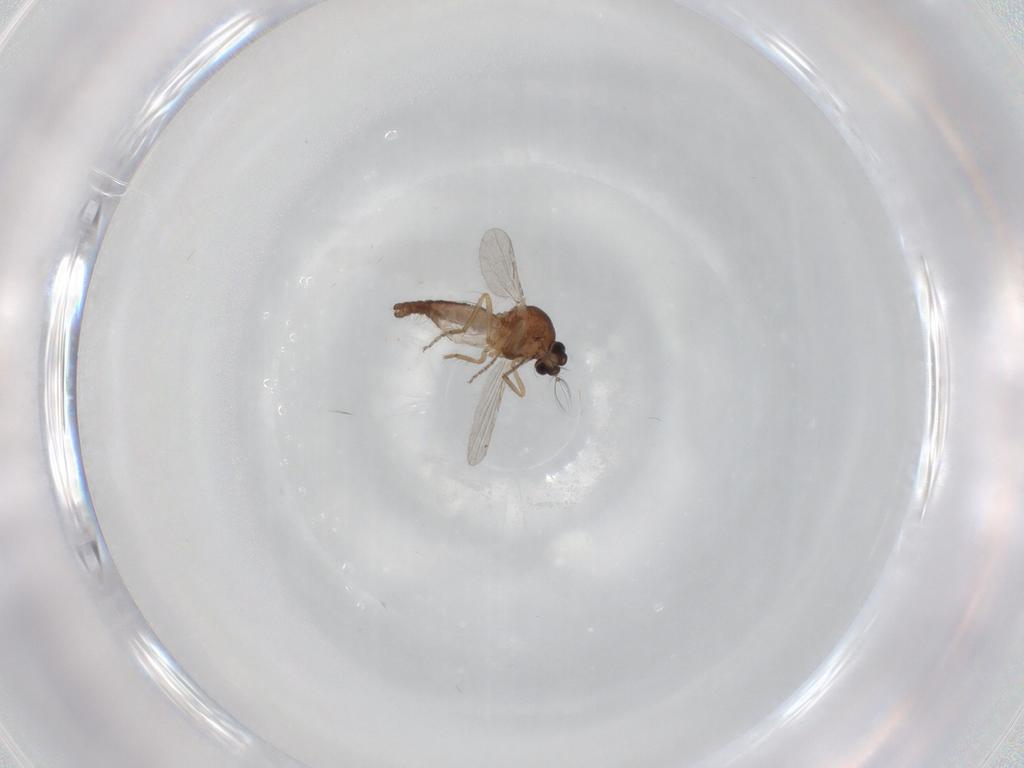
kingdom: Animalia
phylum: Arthropoda
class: Insecta
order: Diptera
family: Ceratopogonidae
